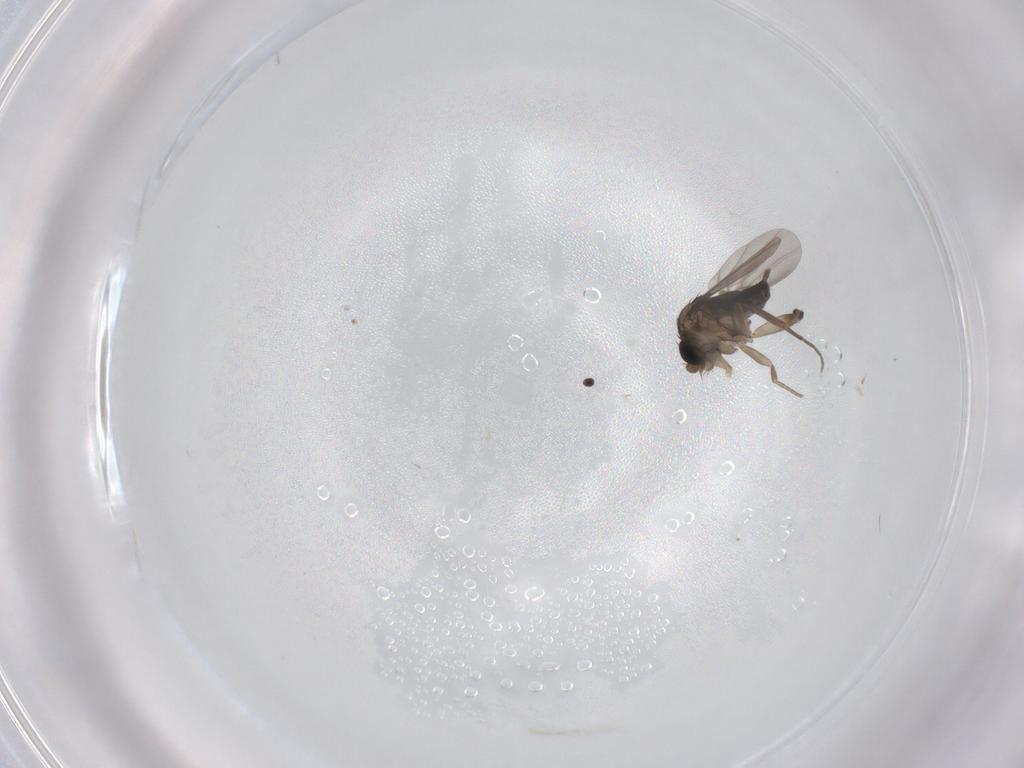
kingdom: Animalia
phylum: Arthropoda
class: Insecta
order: Diptera
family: Phoridae
